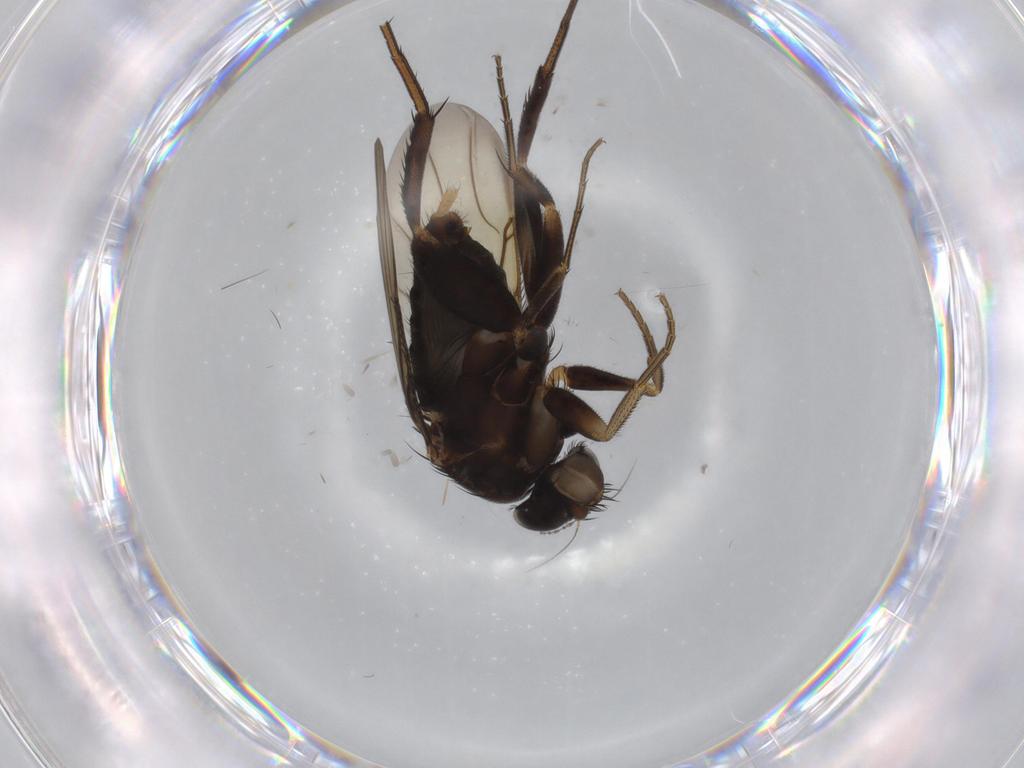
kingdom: Animalia
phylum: Arthropoda
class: Insecta
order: Diptera
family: Phoridae
